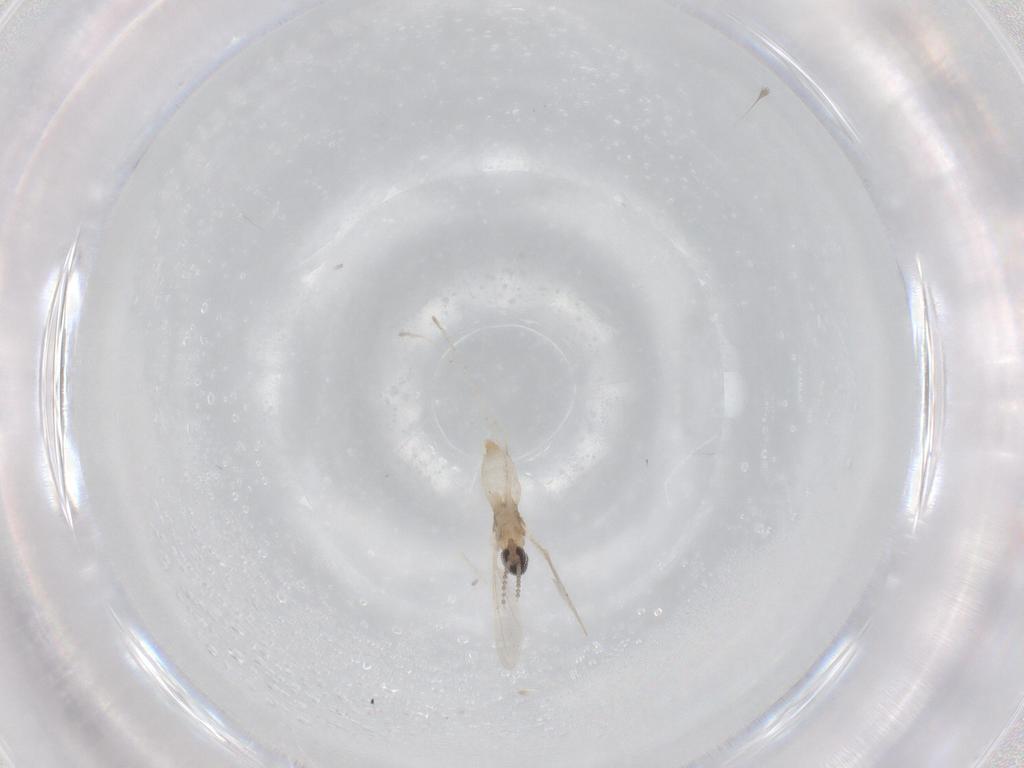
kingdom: Animalia
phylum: Arthropoda
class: Insecta
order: Diptera
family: Cecidomyiidae
